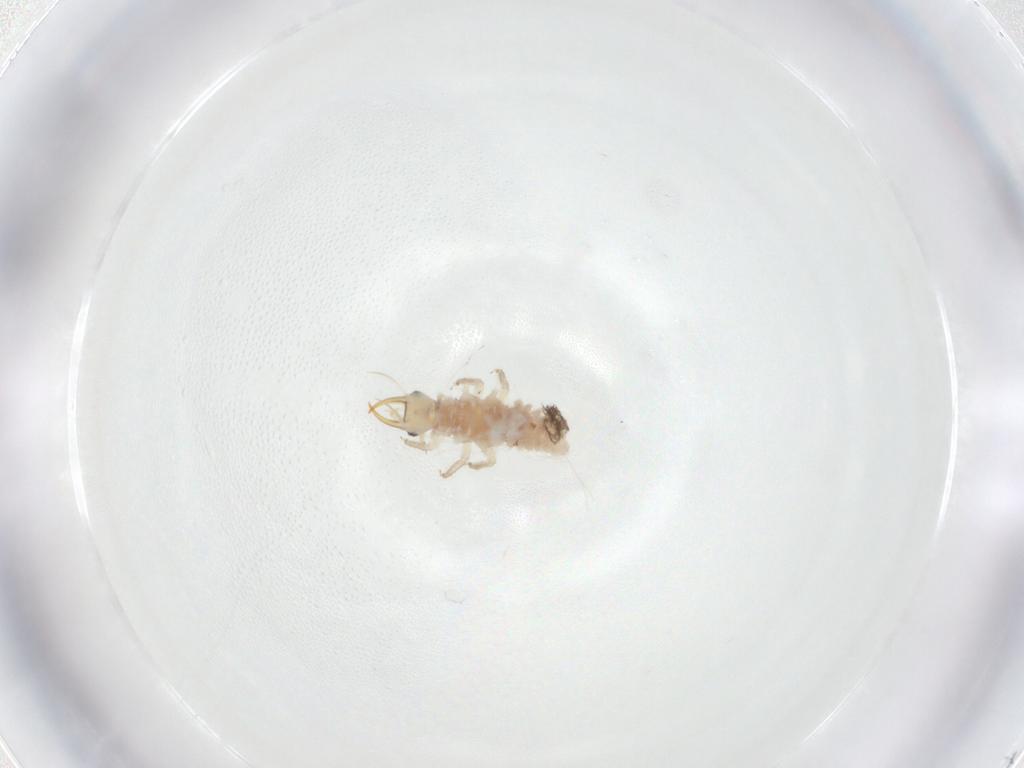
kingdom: Animalia
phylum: Arthropoda
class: Insecta
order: Neuroptera
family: Chrysopidae
